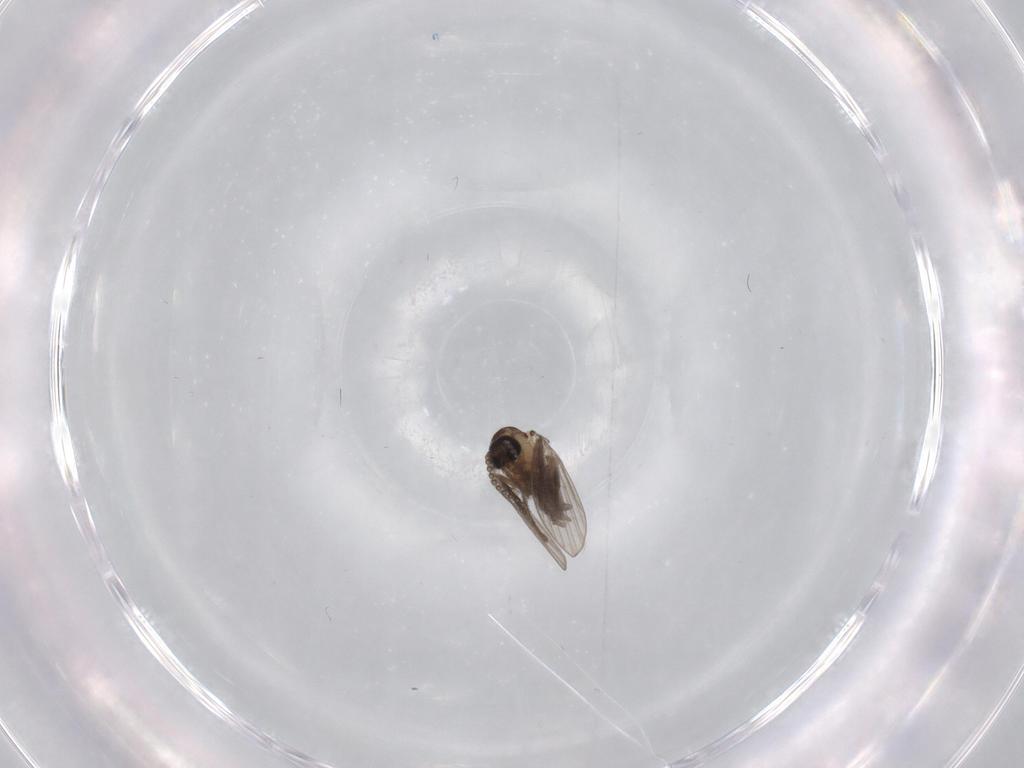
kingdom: Animalia
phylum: Arthropoda
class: Insecta
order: Diptera
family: Psychodidae
